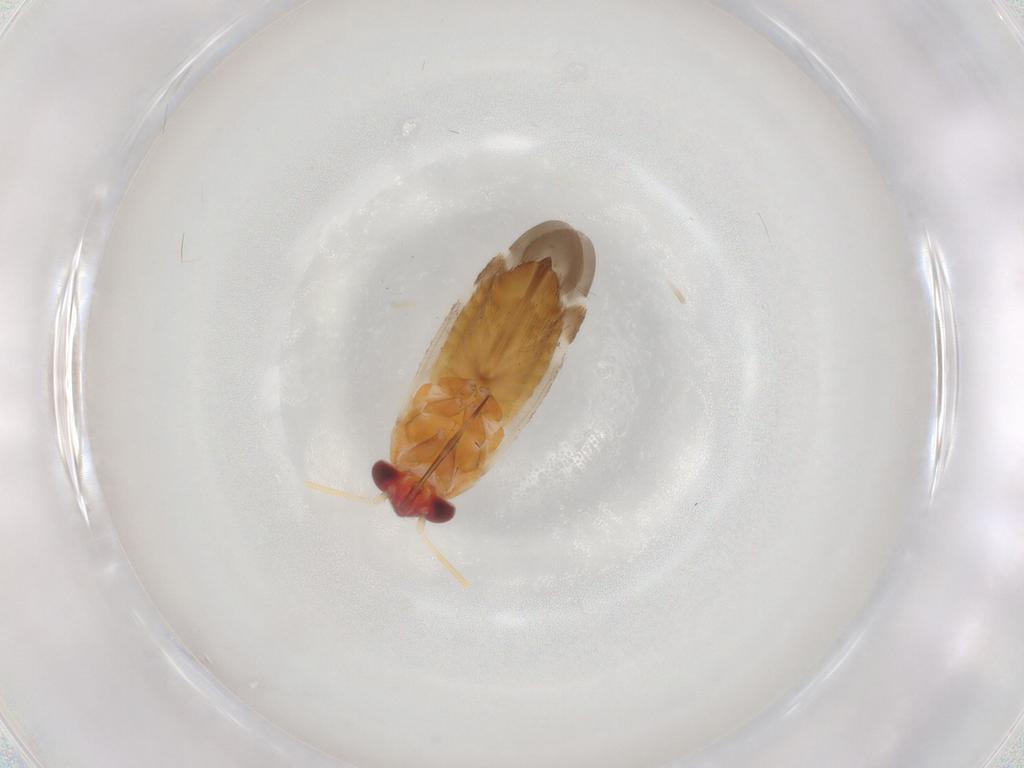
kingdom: Animalia
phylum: Arthropoda
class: Insecta
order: Hemiptera
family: Miridae
